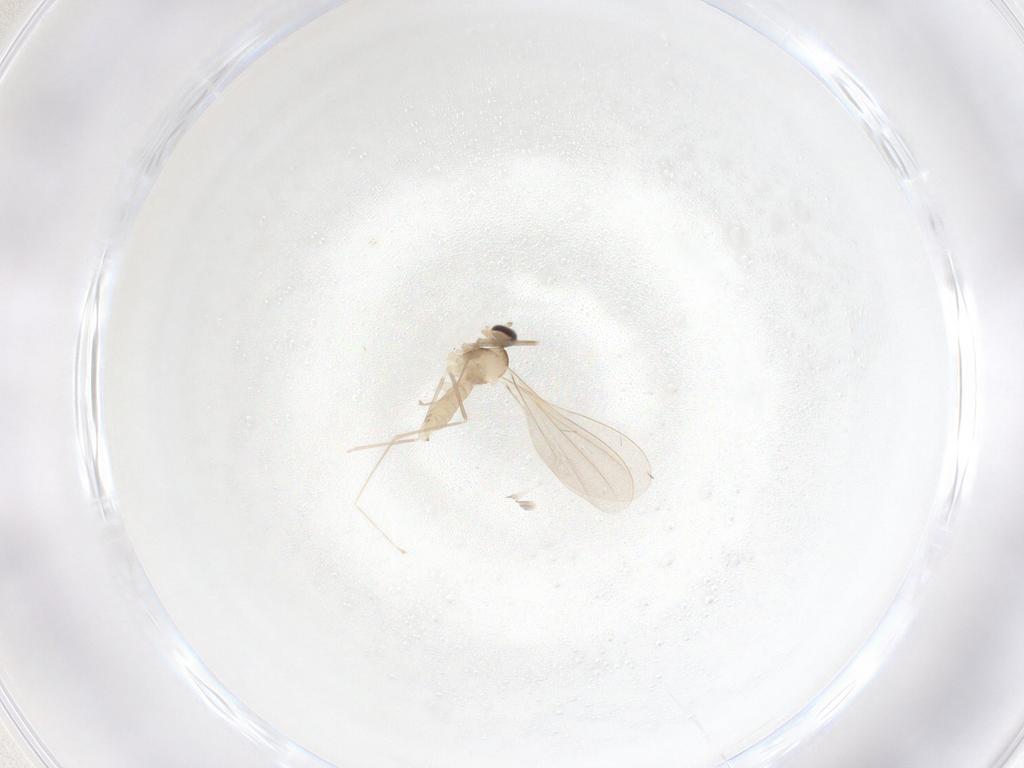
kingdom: Animalia
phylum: Arthropoda
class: Insecta
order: Diptera
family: Cecidomyiidae
